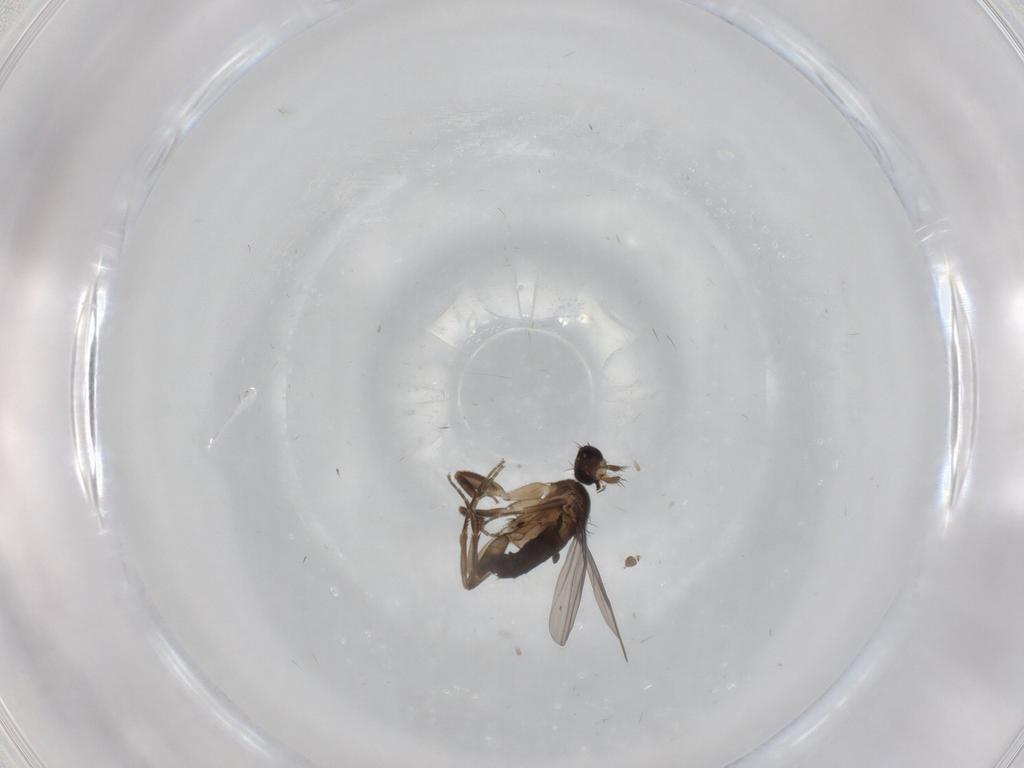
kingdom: Animalia
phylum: Arthropoda
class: Insecta
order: Diptera
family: Phoridae
